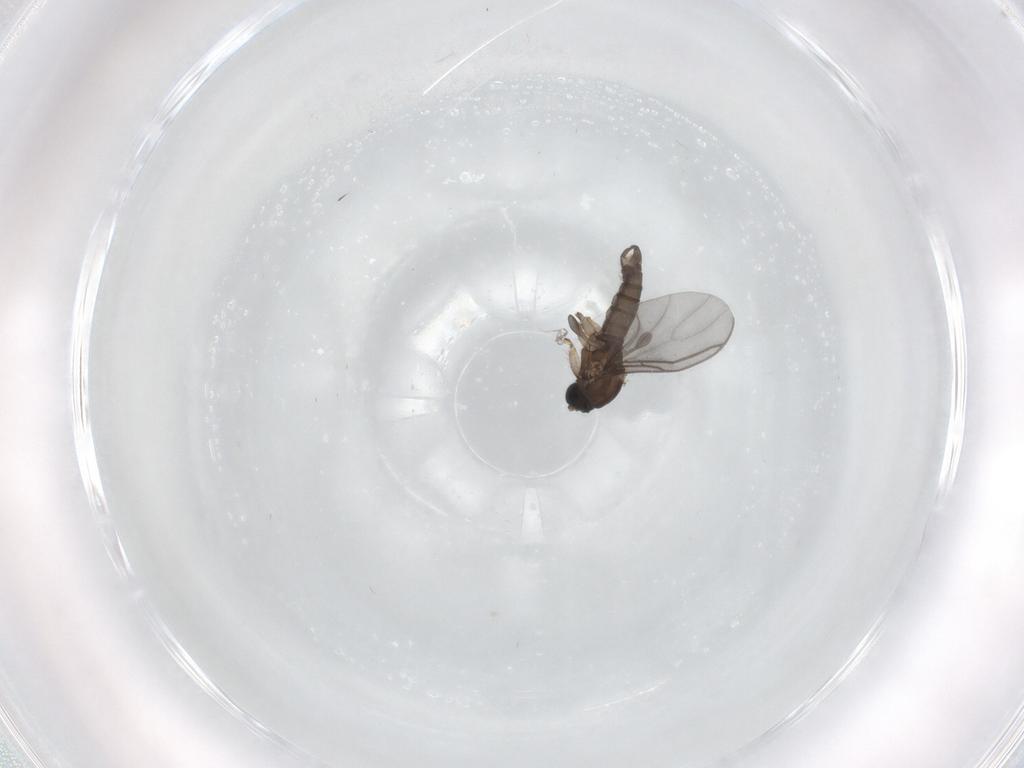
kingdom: Animalia
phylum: Arthropoda
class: Insecta
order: Diptera
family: Sciaridae
